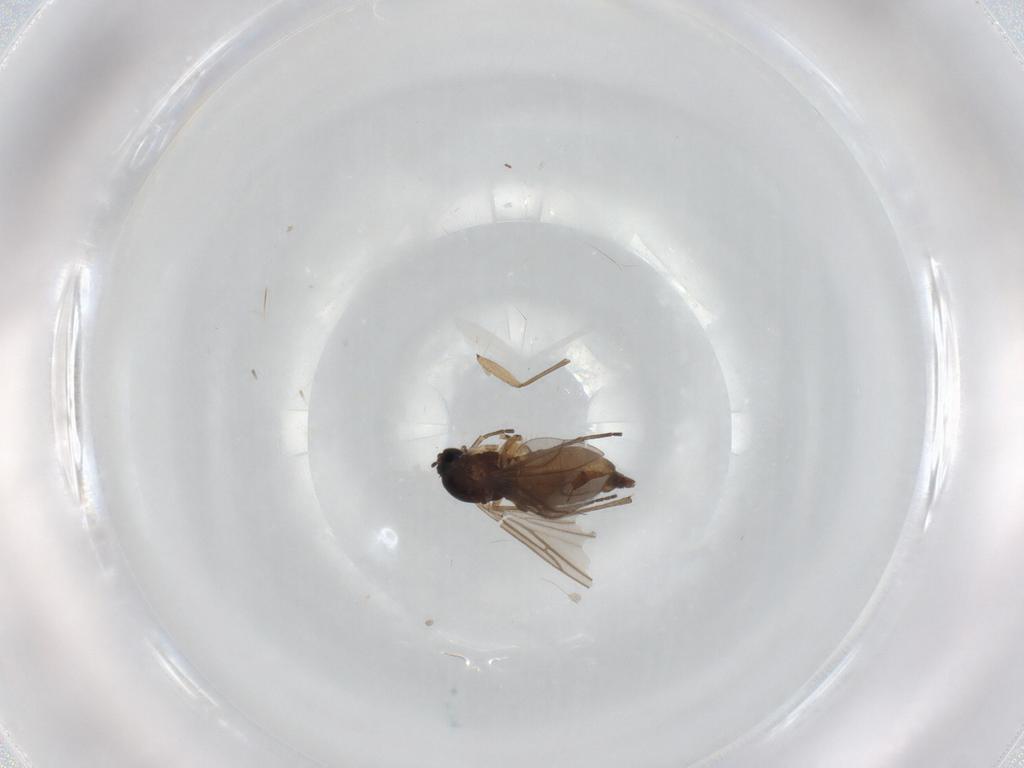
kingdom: Animalia
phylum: Arthropoda
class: Insecta
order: Diptera
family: Sciaridae
